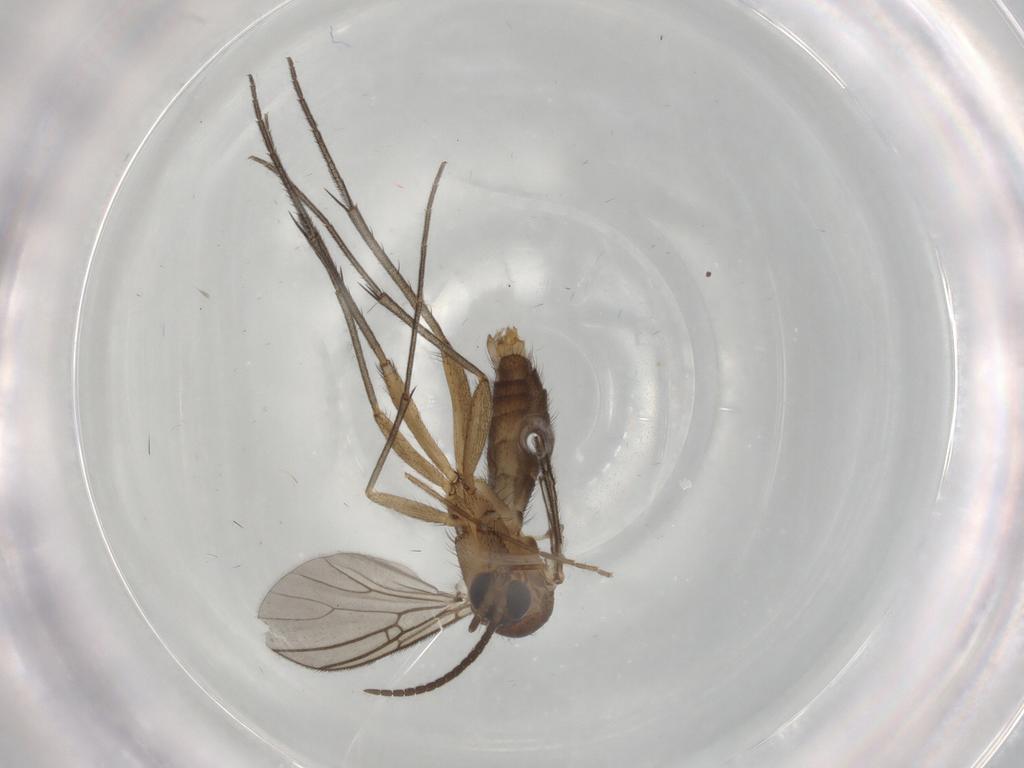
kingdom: Animalia
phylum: Arthropoda
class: Insecta
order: Diptera
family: Cecidomyiidae
